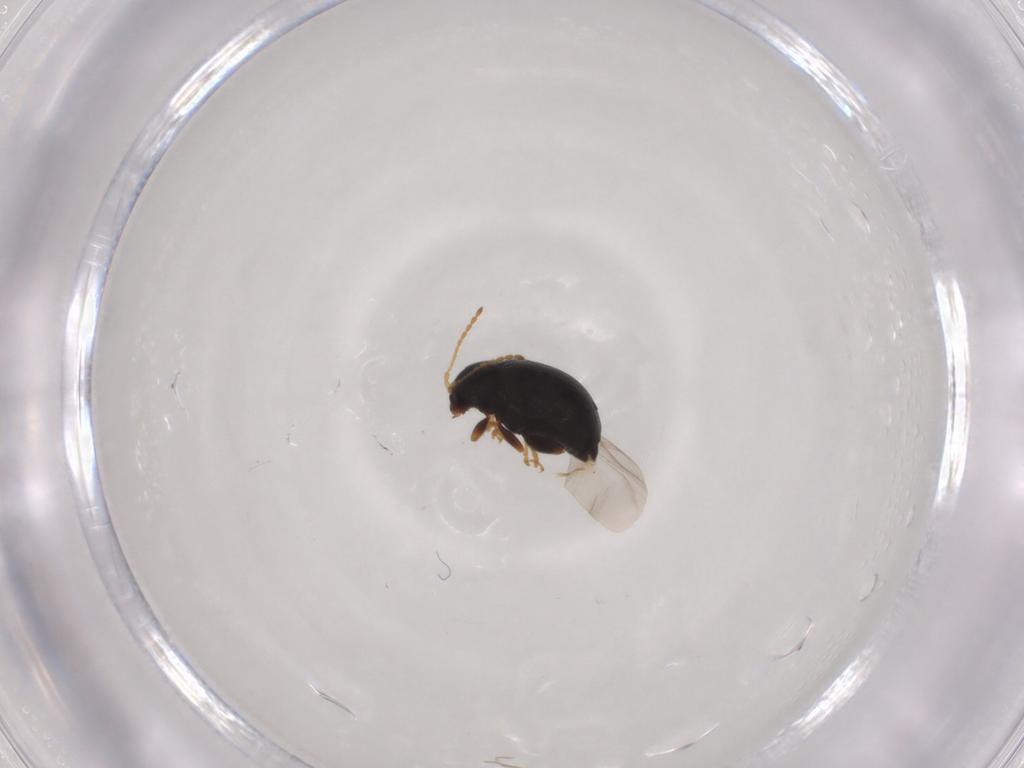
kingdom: Animalia
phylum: Arthropoda
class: Insecta
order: Coleoptera
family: Chrysomelidae
